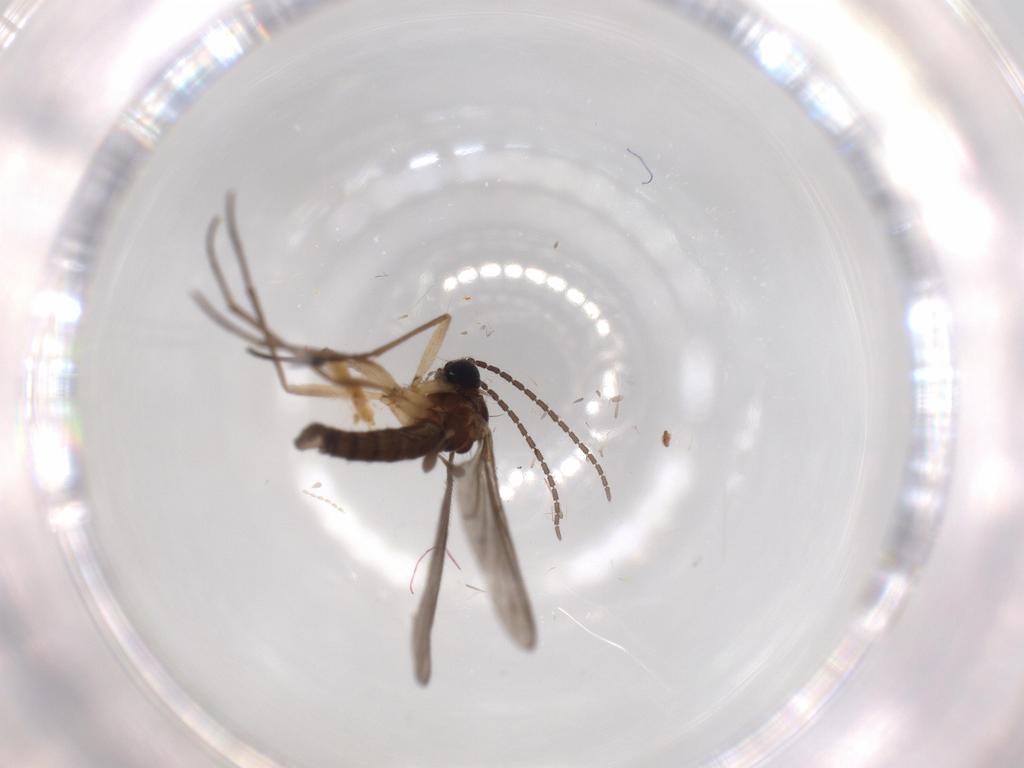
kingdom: Animalia
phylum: Arthropoda
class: Insecta
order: Diptera
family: Sciaridae
